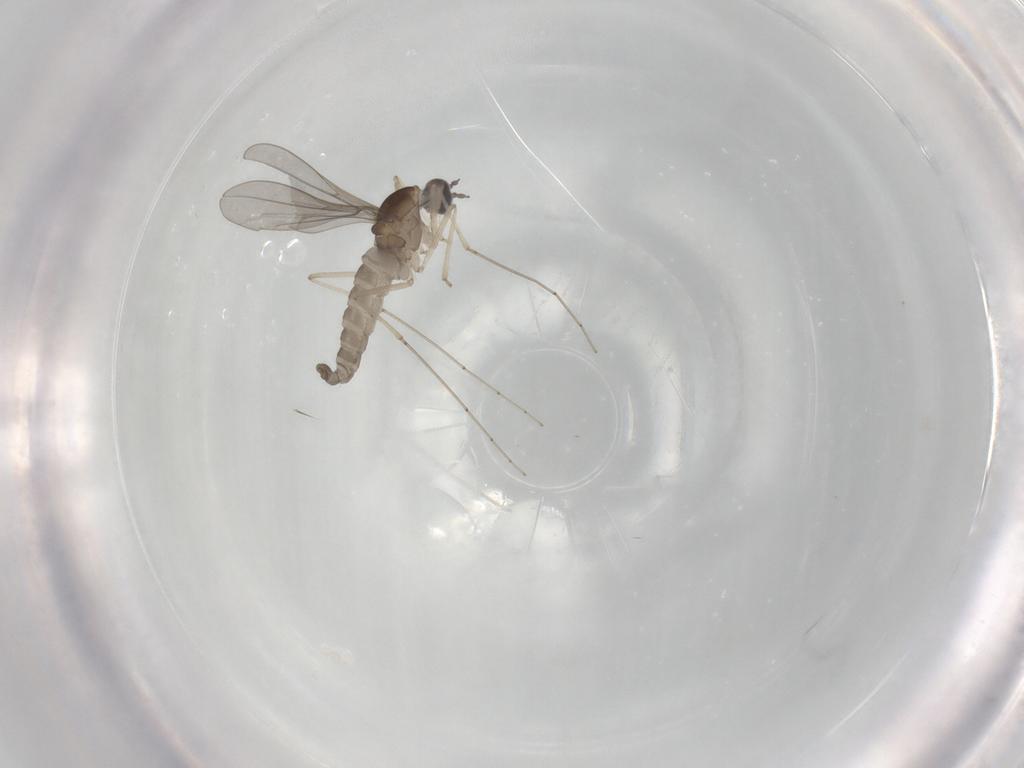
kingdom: Animalia
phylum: Arthropoda
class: Insecta
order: Diptera
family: Cecidomyiidae
